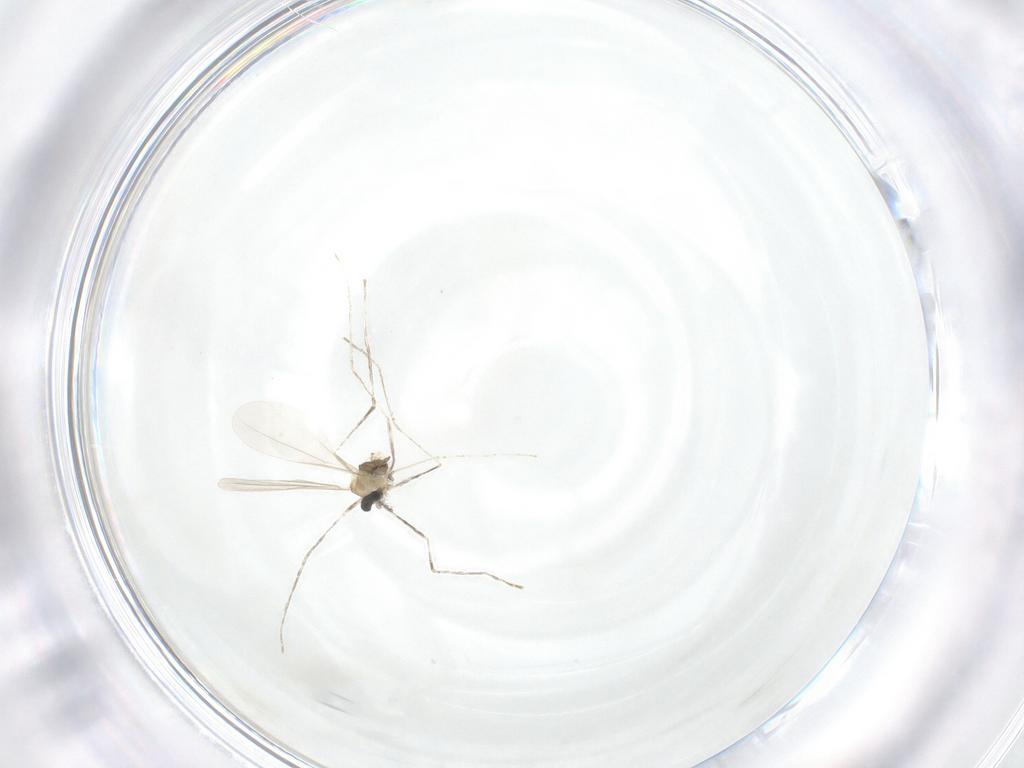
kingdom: Animalia
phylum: Arthropoda
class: Insecta
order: Diptera
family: Cecidomyiidae
